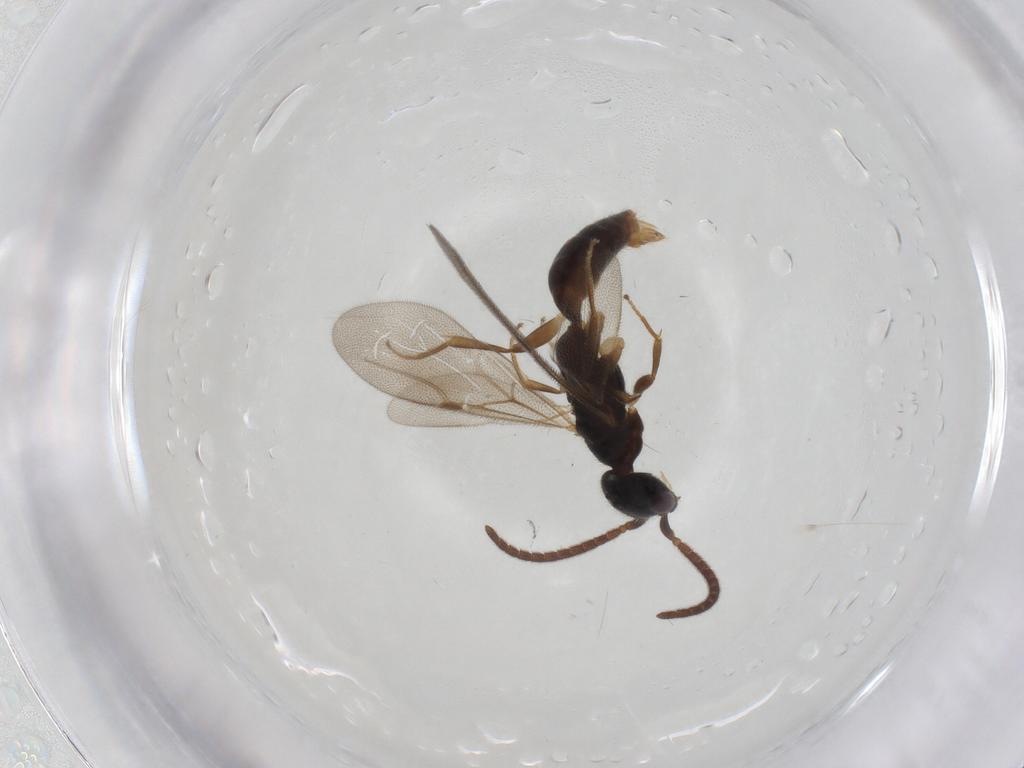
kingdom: Animalia
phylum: Arthropoda
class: Insecta
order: Hymenoptera
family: Bethylidae
